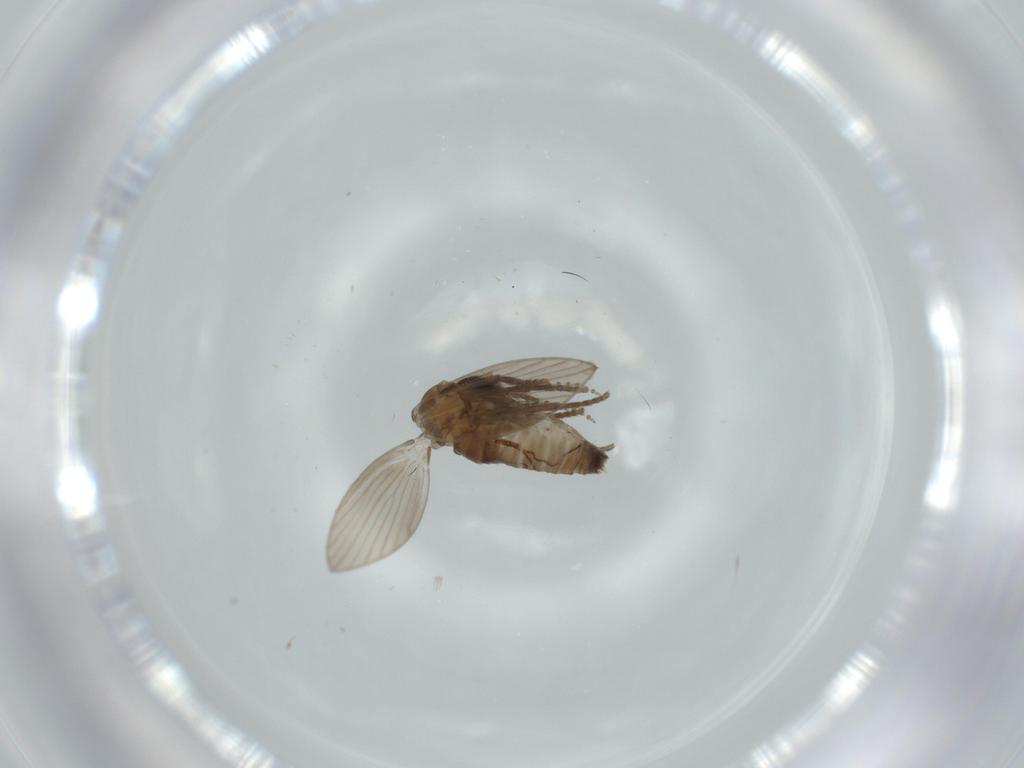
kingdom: Animalia
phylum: Arthropoda
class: Insecta
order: Diptera
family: Psychodidae
